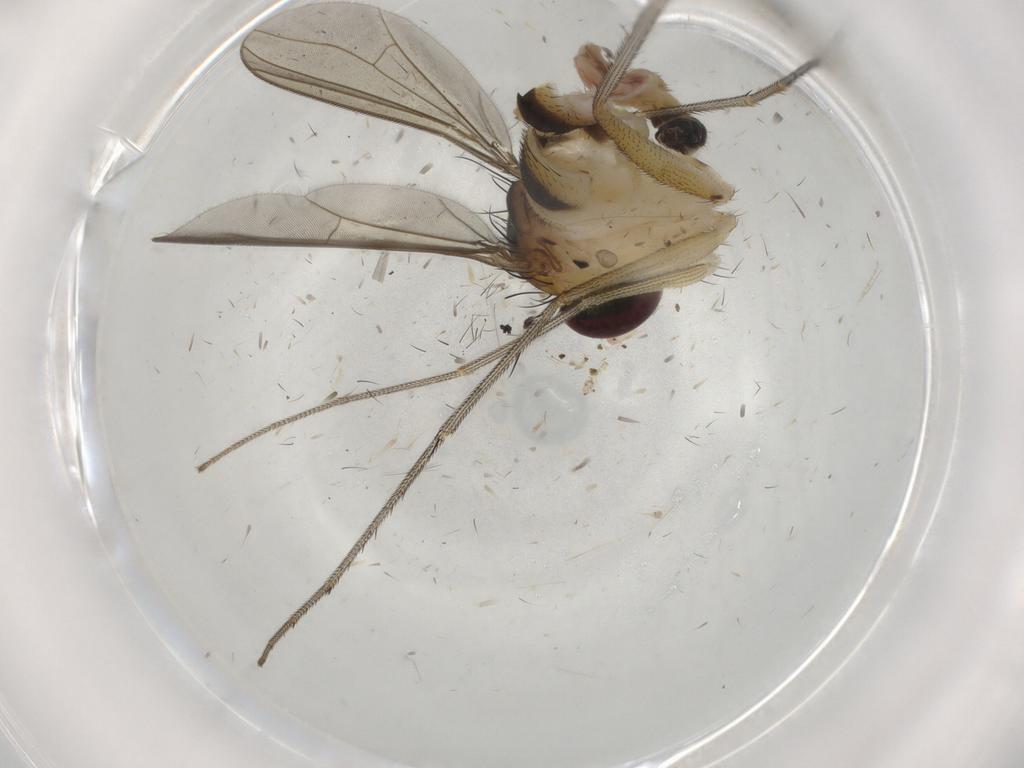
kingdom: Animalia
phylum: Arthropoda
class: Insecta
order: Diptera
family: Ceratopogonidae
